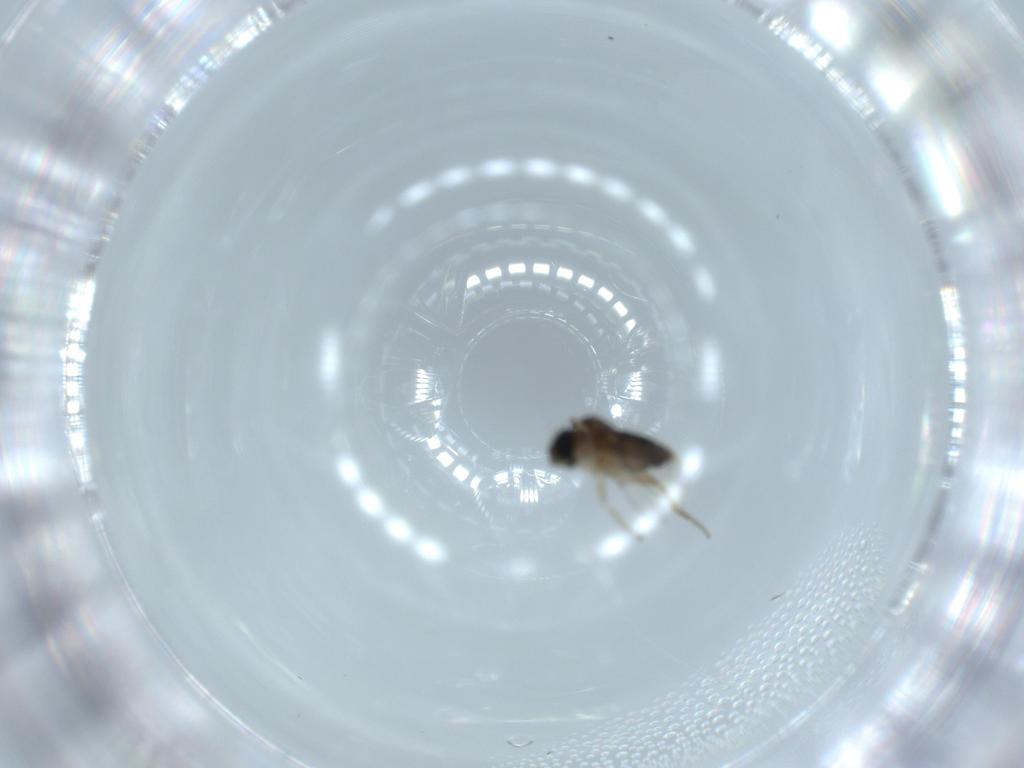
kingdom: Animalia
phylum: Arthropoda
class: Insecta
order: Diptera
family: Phoridae
